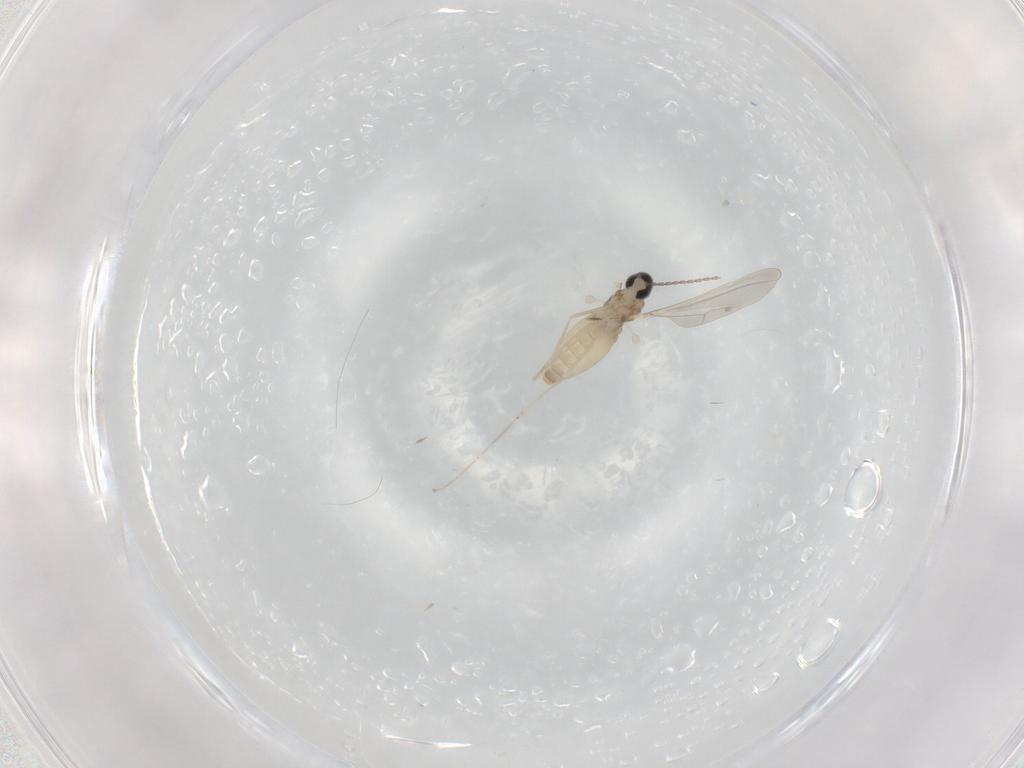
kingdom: Animalia
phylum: Arthropoda
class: Insecta
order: Diptera
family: Cecidomyiidae
